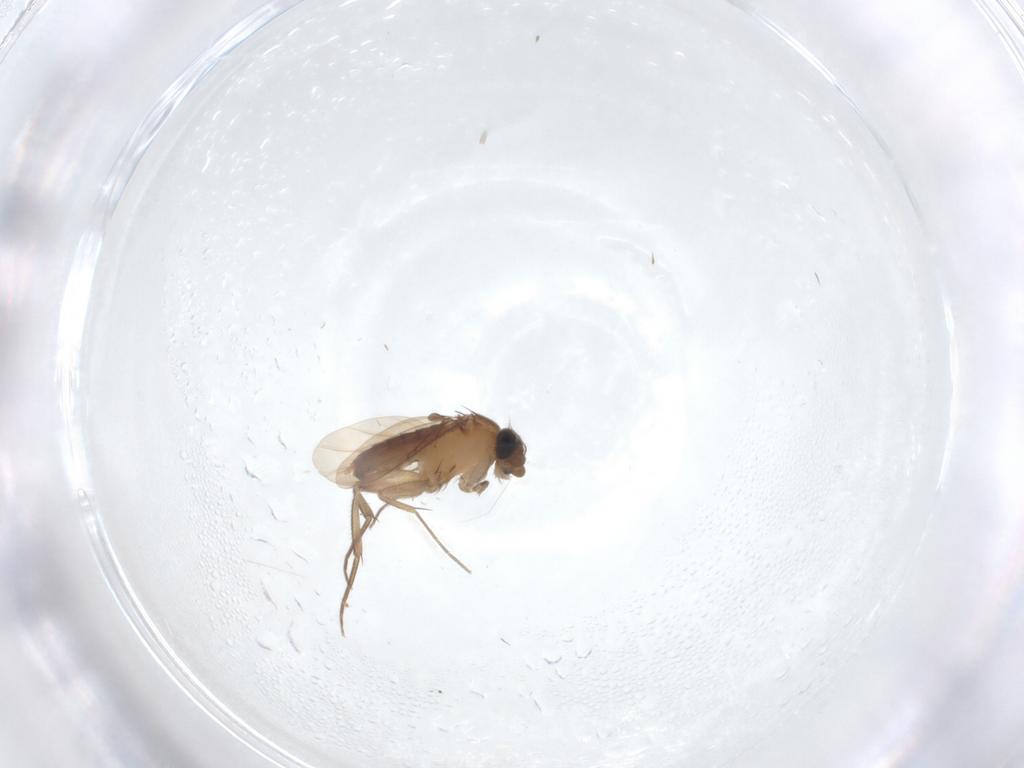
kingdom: Animalia
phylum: Arthropoda
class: Insecta
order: Diptera
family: Phoridae
